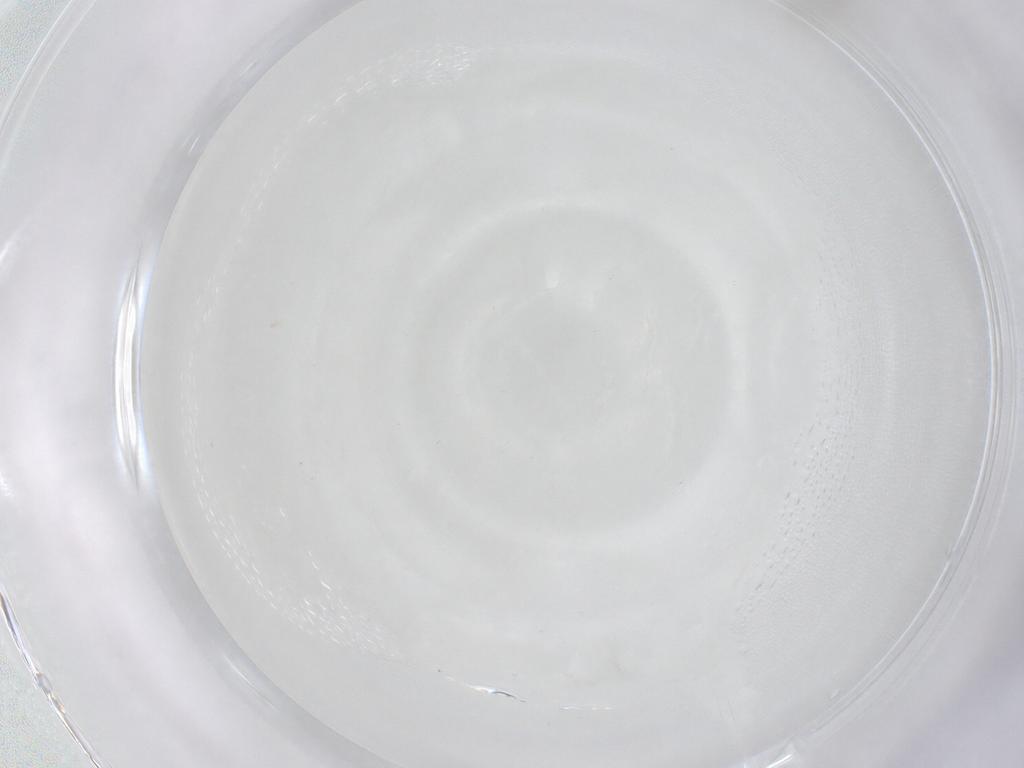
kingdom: Animalia
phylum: Arthropoda
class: Insecta
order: Diptera
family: Cecidomyiidae
